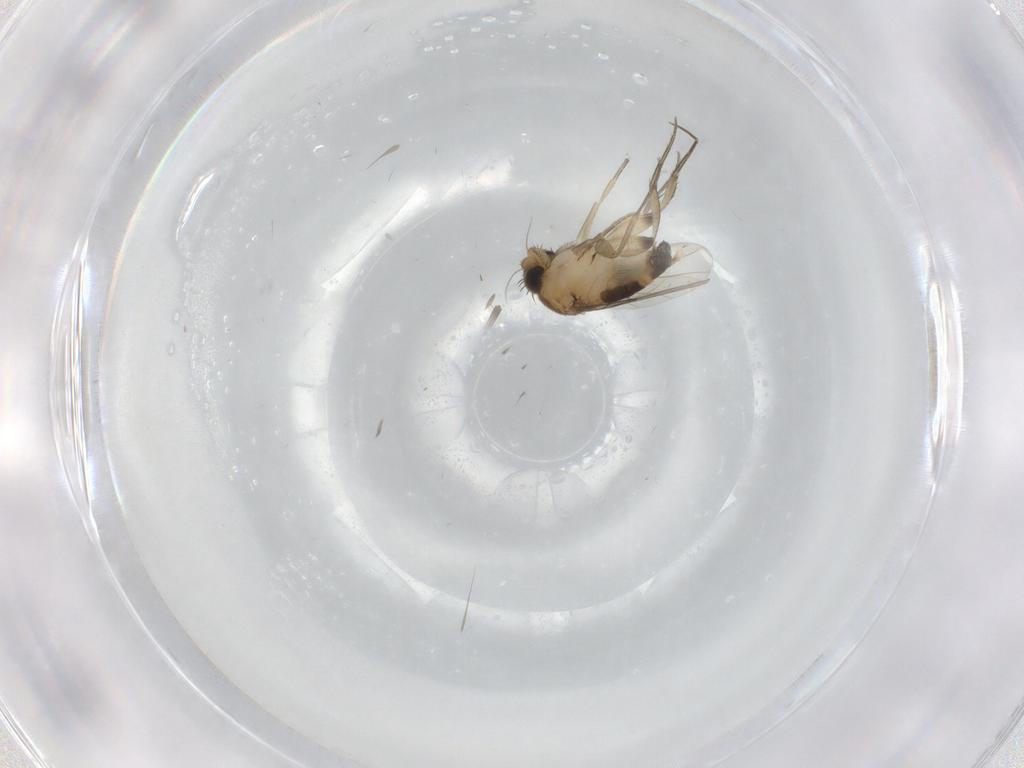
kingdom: Animalia
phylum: Arthropoda
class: Insecta
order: Diptera
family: Phoridae
